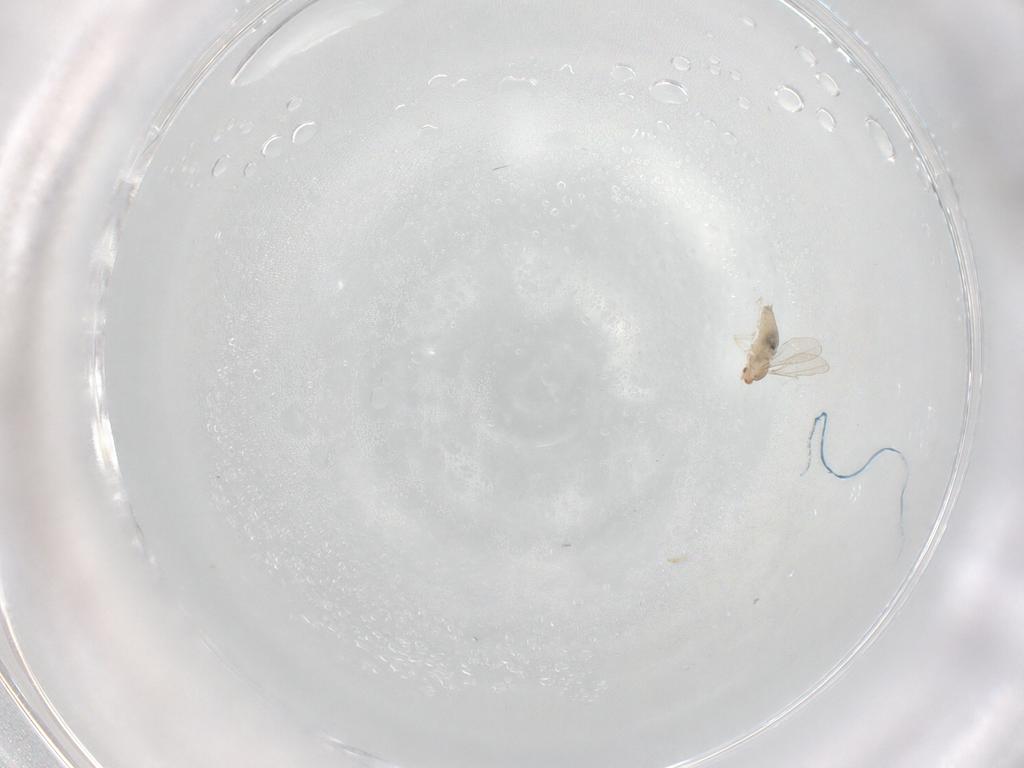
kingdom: Animalia
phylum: Arthropoda
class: Insecta
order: Diptera
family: Cecidomyiidae
